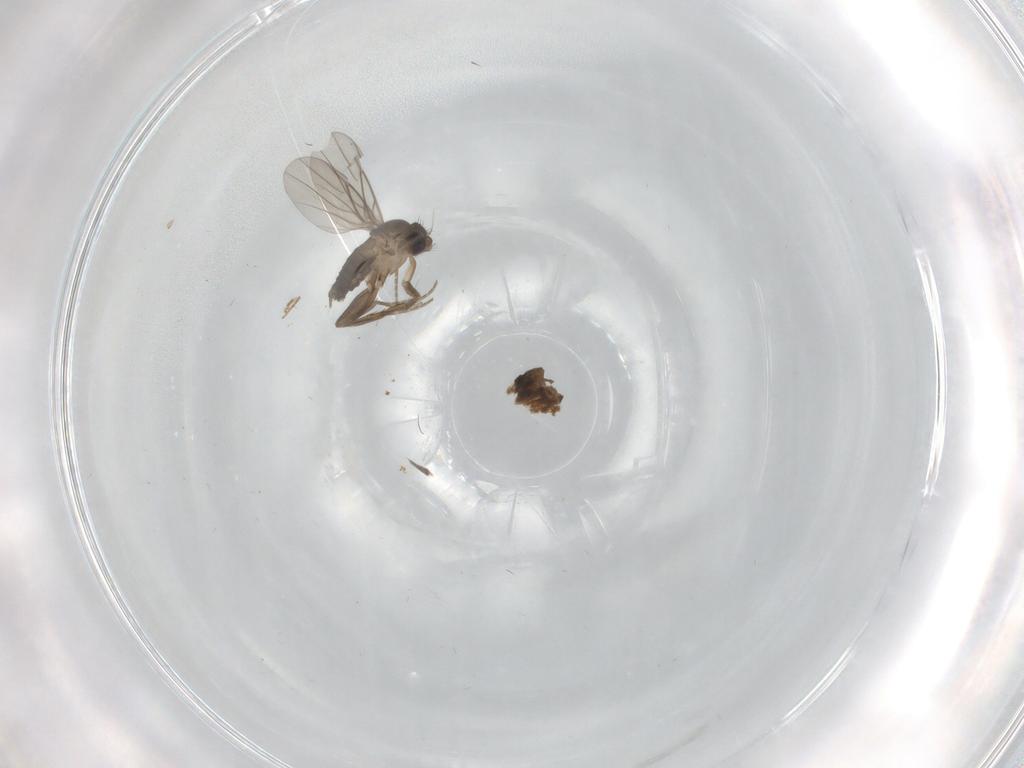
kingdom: Animalia
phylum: Arthropoda
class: Insecta
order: Diptera
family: Phoridae
